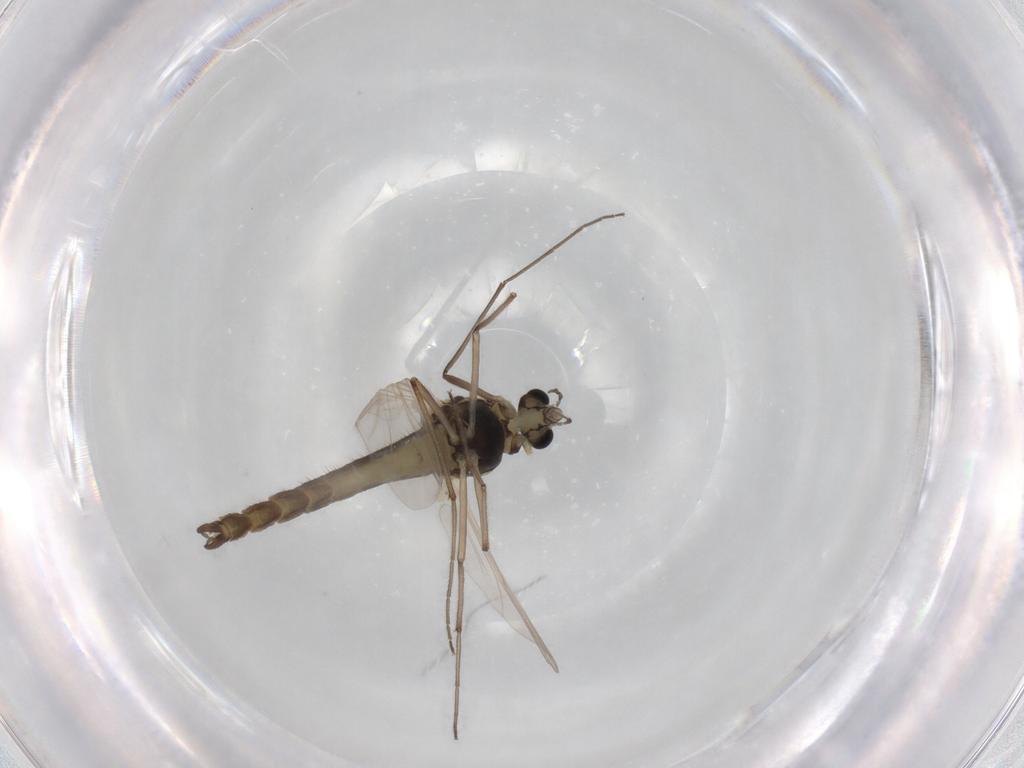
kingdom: Animalia
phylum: Arthropoda
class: Insecta
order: Diptera
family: Chironomidae
